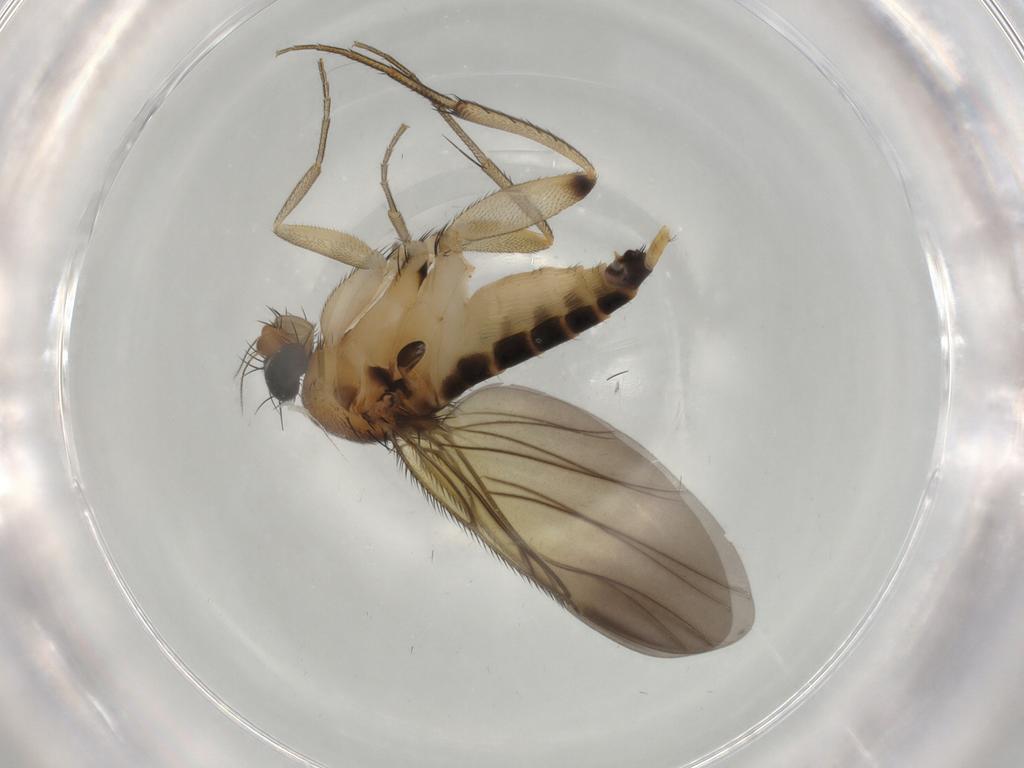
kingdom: Animalia
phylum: Arthropoda
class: Insecta
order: Diptera
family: Phoridae
